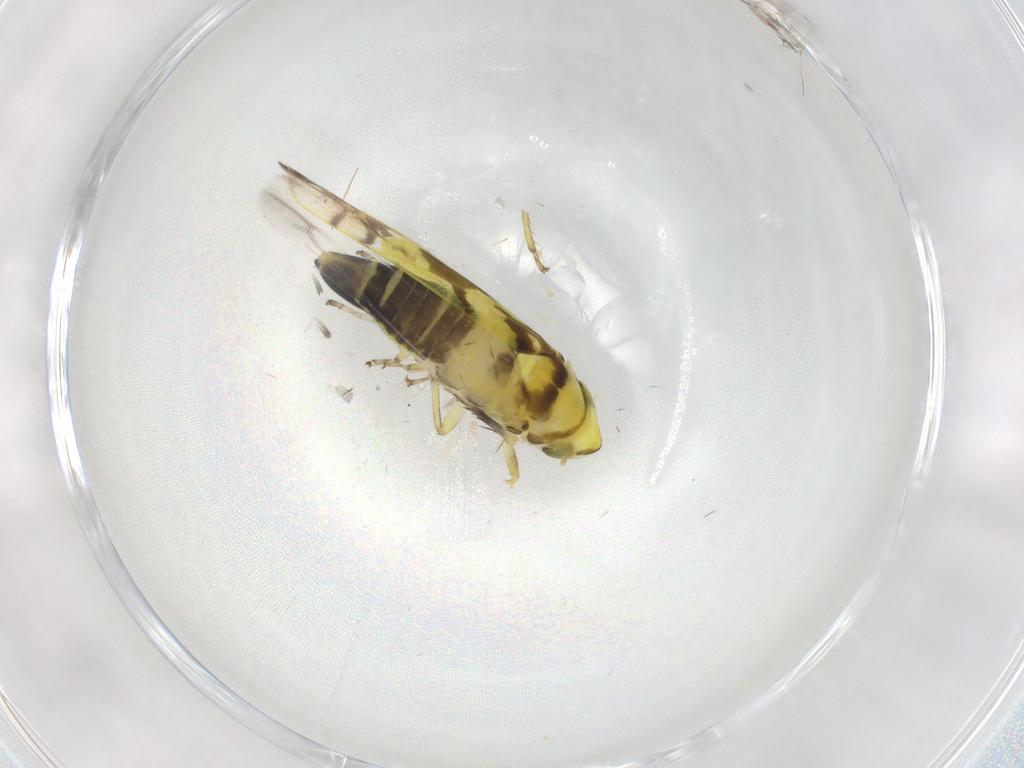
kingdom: Animalia
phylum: Arthropoda
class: Insecta
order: Hemiptera
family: Cicadellidae
